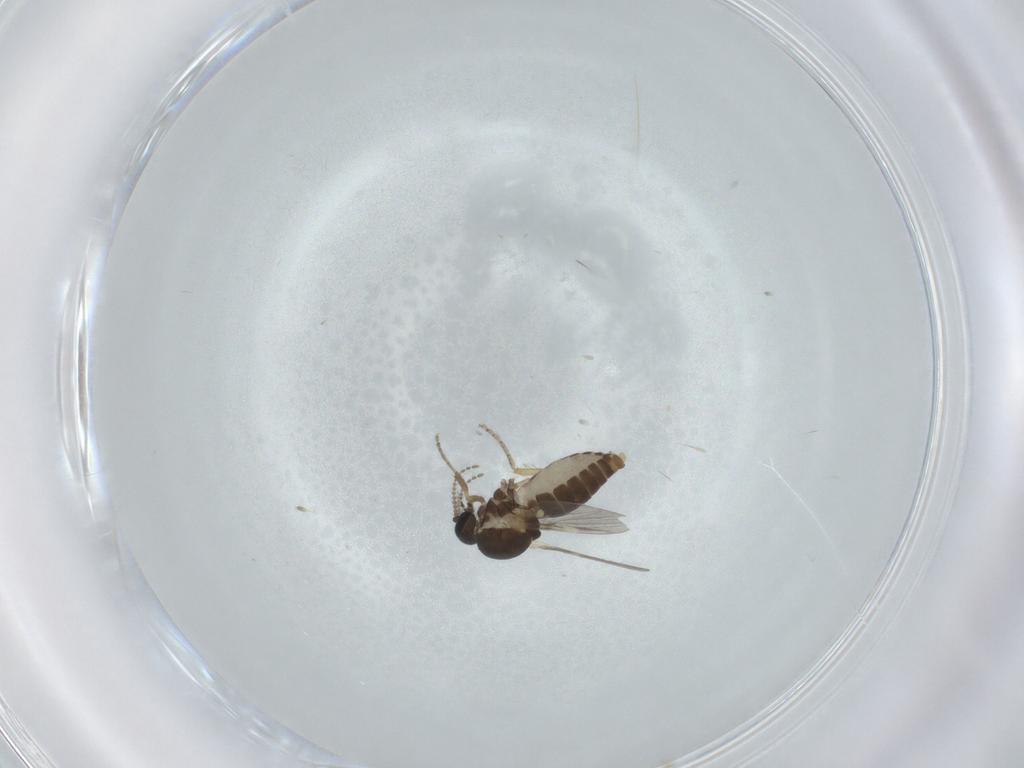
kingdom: Animalia
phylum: Arthropoda
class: Insecta
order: Diptera
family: Ceratopogonidae
